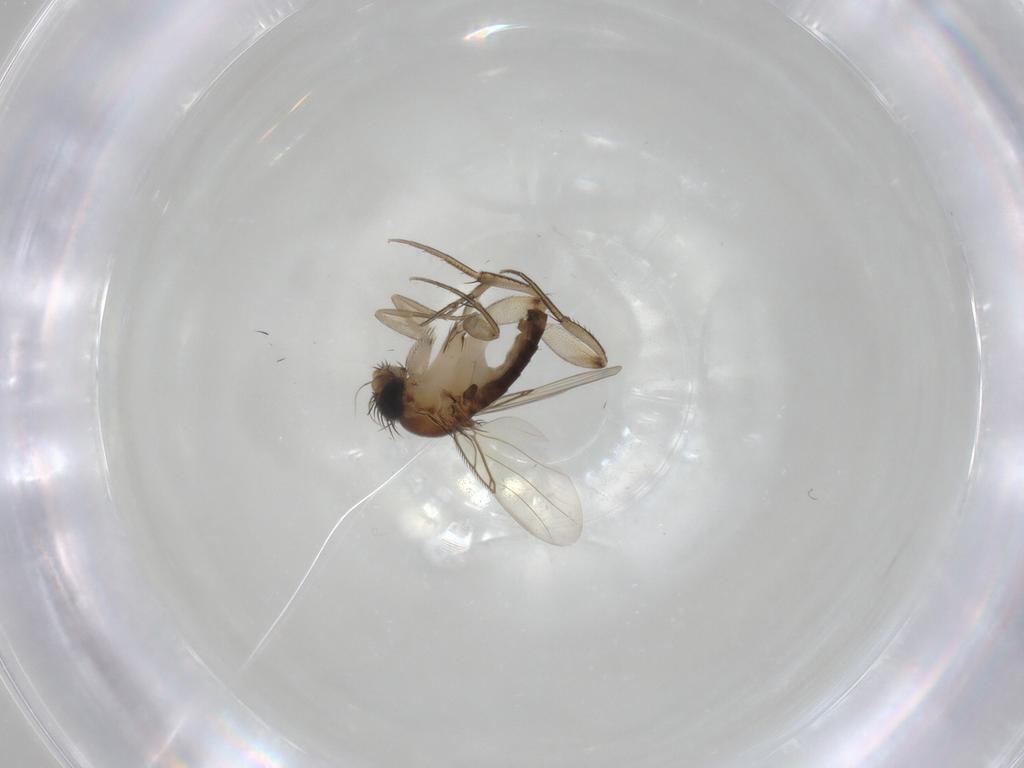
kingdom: Animalia
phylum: Arthropoda
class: Insecta
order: Diptera
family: Phoridae
